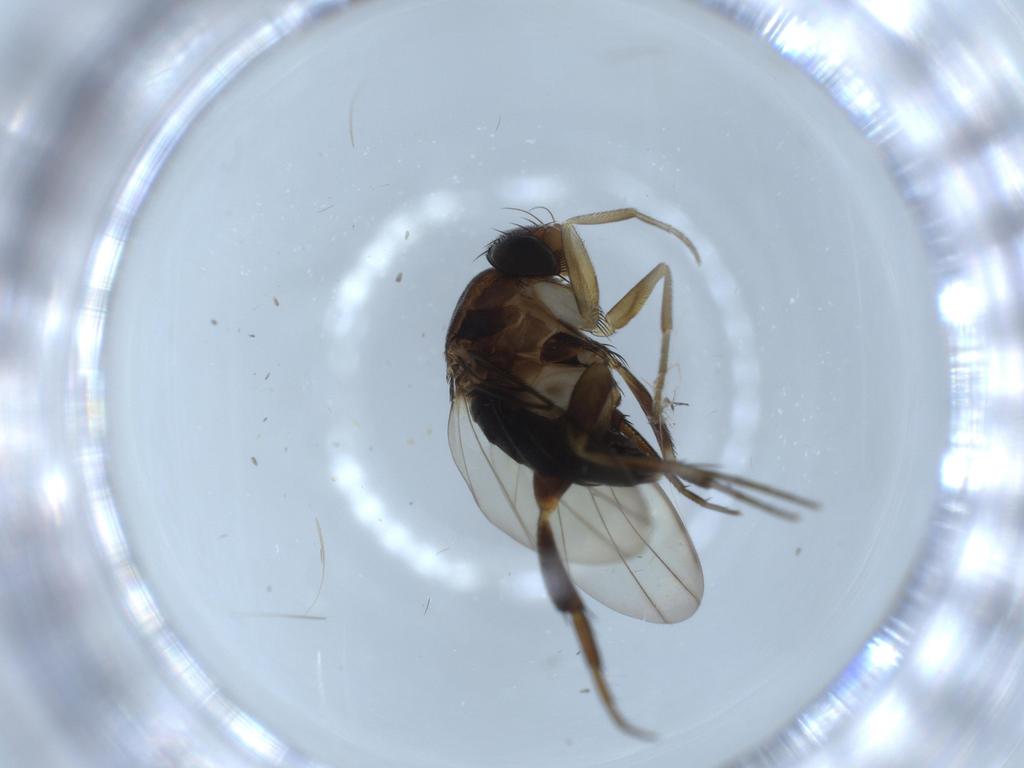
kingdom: Animalia
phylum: Arthropoda
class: Insecta
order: Diptera
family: Phoridae
